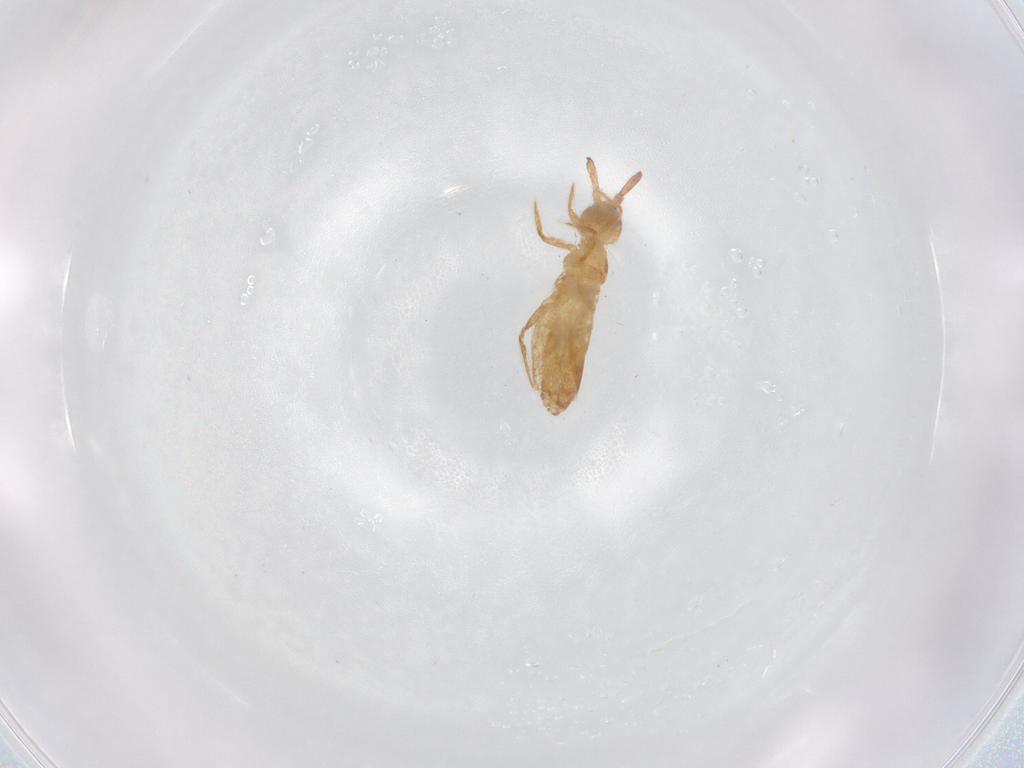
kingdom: Animalia
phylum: Arthropoda
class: Collembola
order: Entomobryomorpha
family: Entomobryidae
